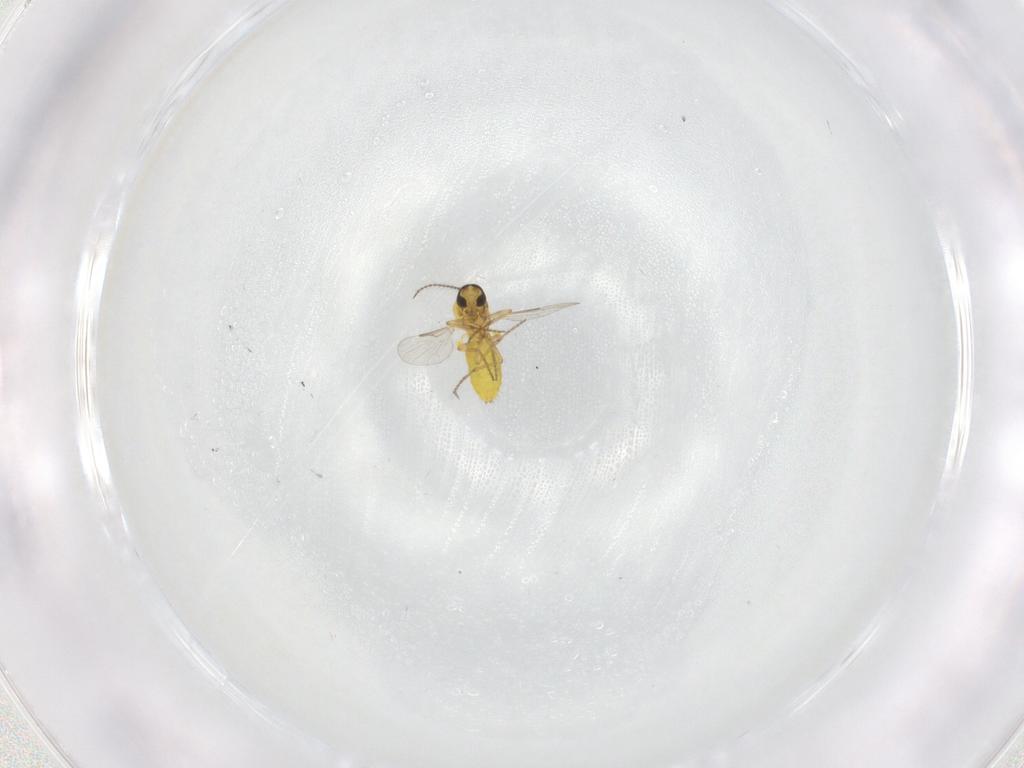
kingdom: Animalia
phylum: Arthropoda
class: Insecta
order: Diptera
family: Ceratopogonidae
